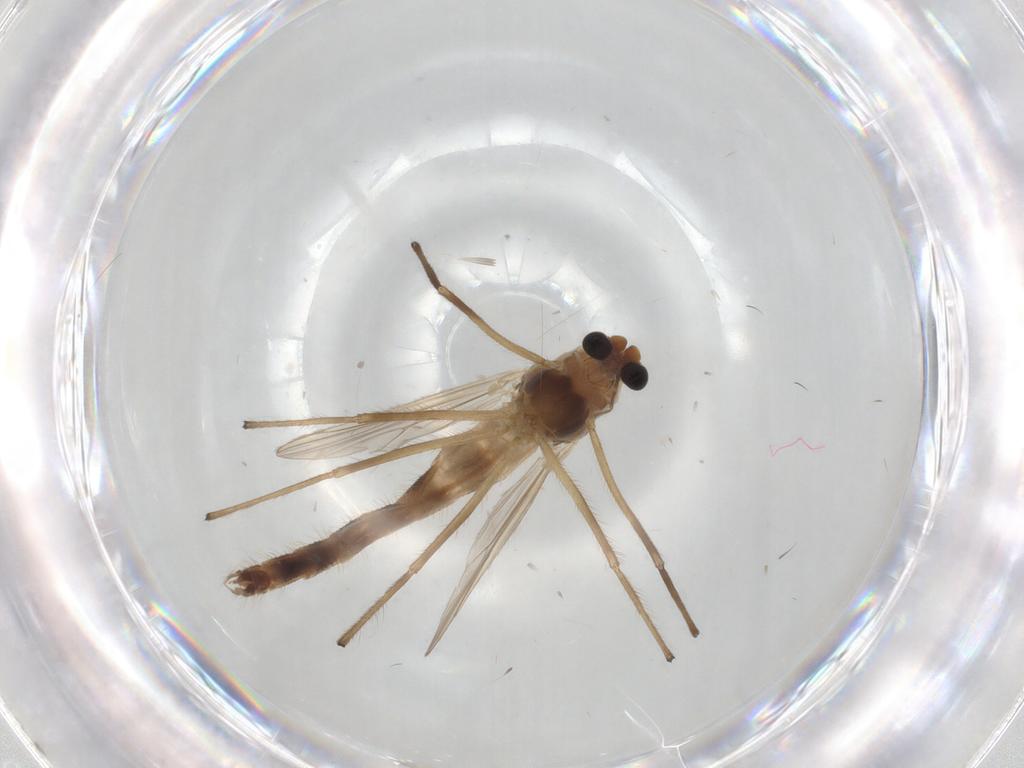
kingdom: Animalia
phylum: Arthropoda
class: Insecta
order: Diptera
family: Chironomidae
